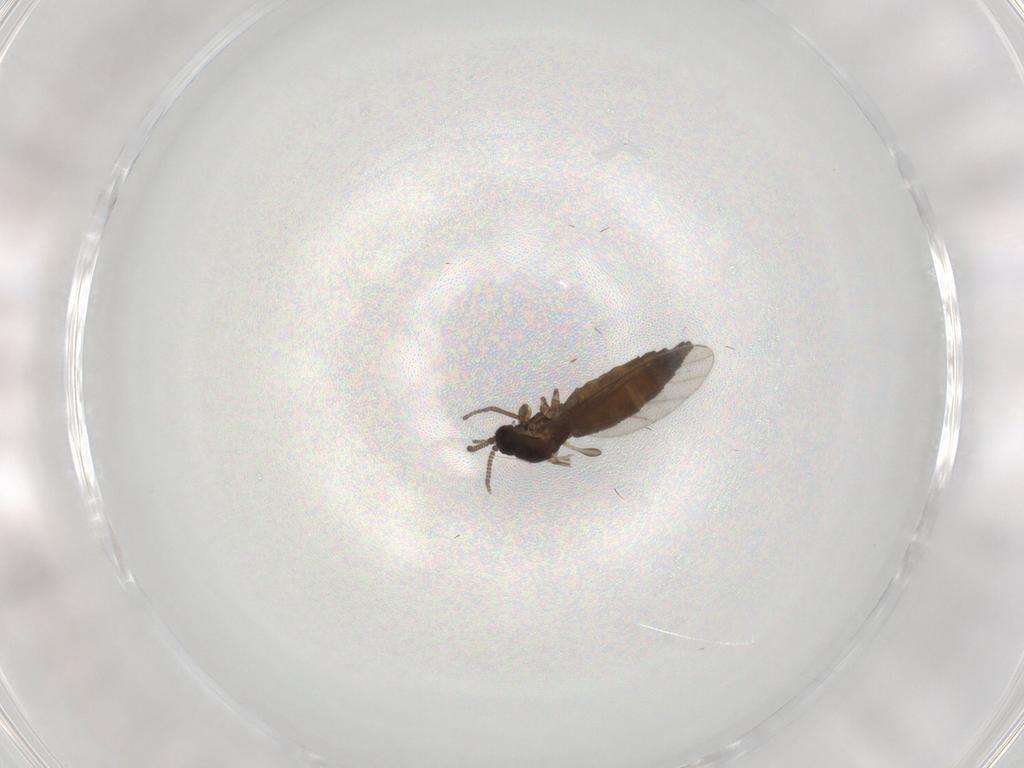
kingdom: Animalia
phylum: Arthropoda
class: Insecta
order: Diptera
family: Sciaridae
